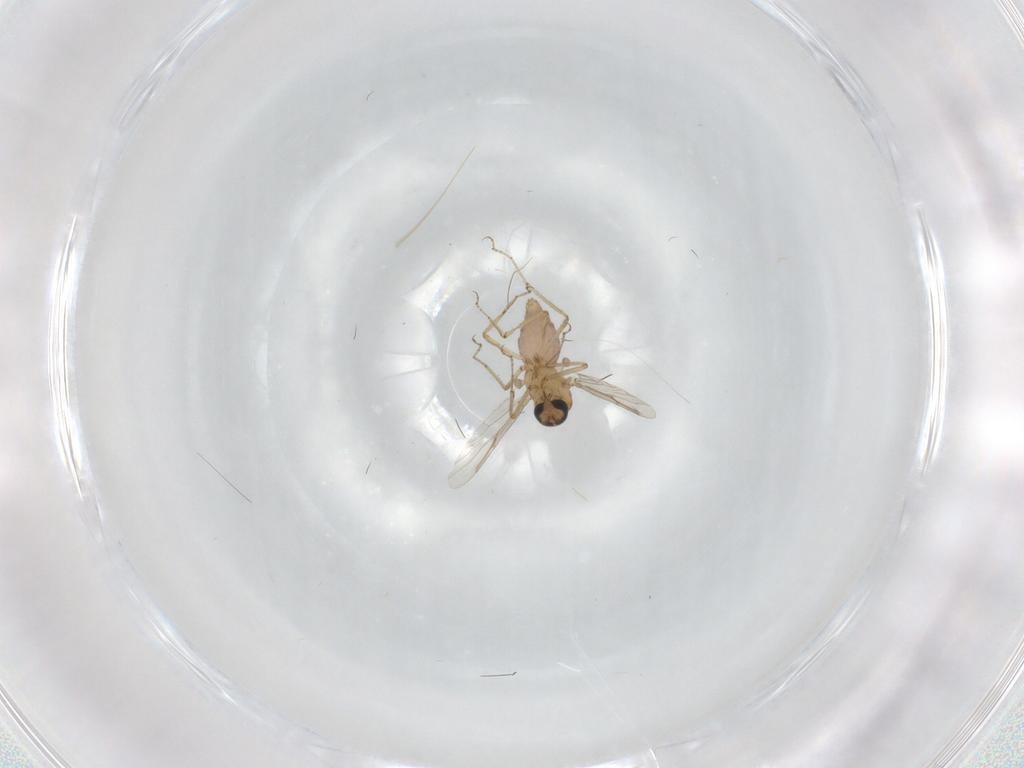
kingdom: Animalia
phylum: Arthropoda
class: Insecta
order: Diptera
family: Ceratopogonidae
